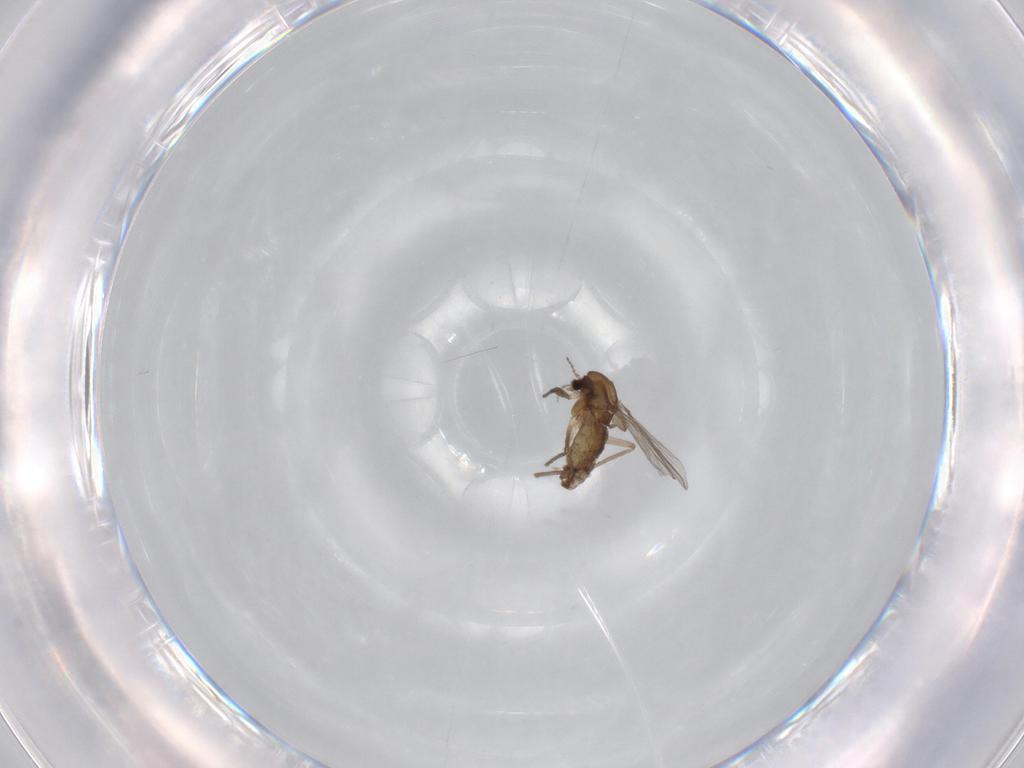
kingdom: Animalia
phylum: Arthropoda
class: Insecta
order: Diptera
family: Chironomidae
